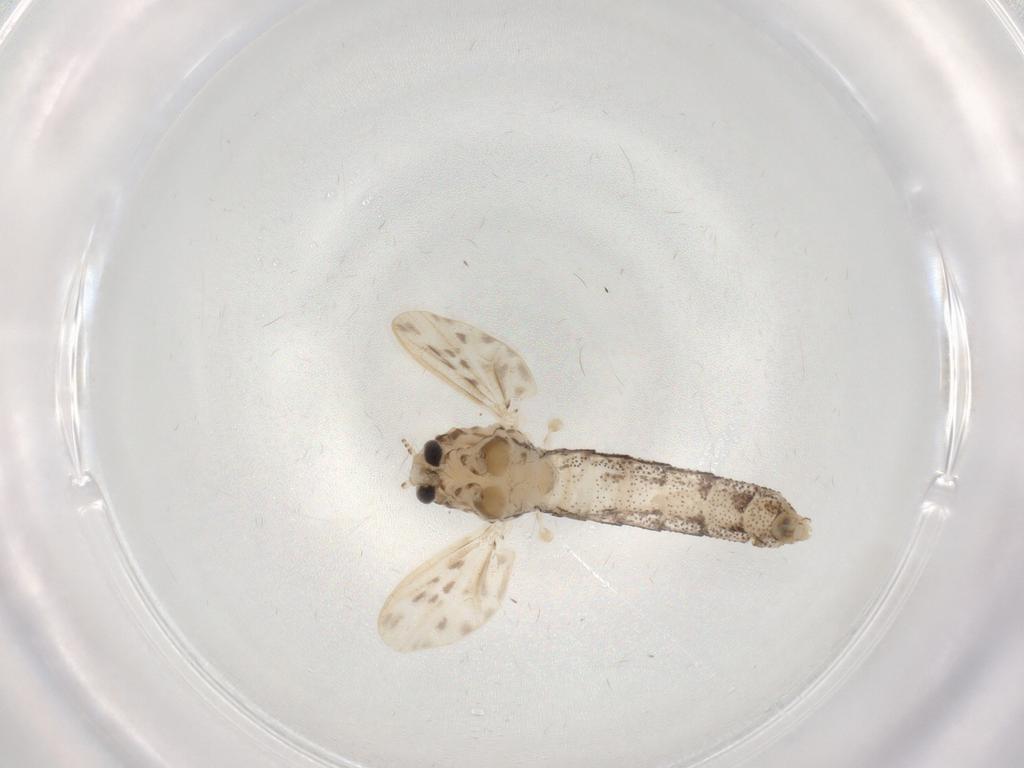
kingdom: Animalia
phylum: Arthropoda
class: Insecta
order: Diptera
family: Chaoboridae
